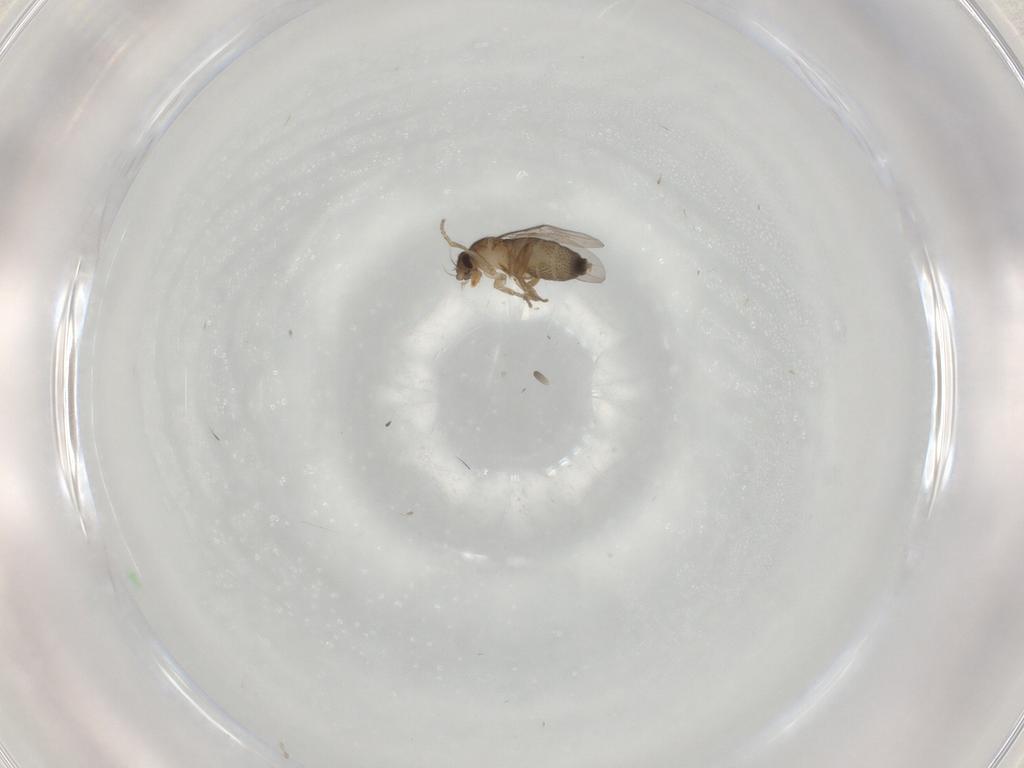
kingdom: Animalia
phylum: Arthropoda
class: Insecta
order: Diptera
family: Phoridae
